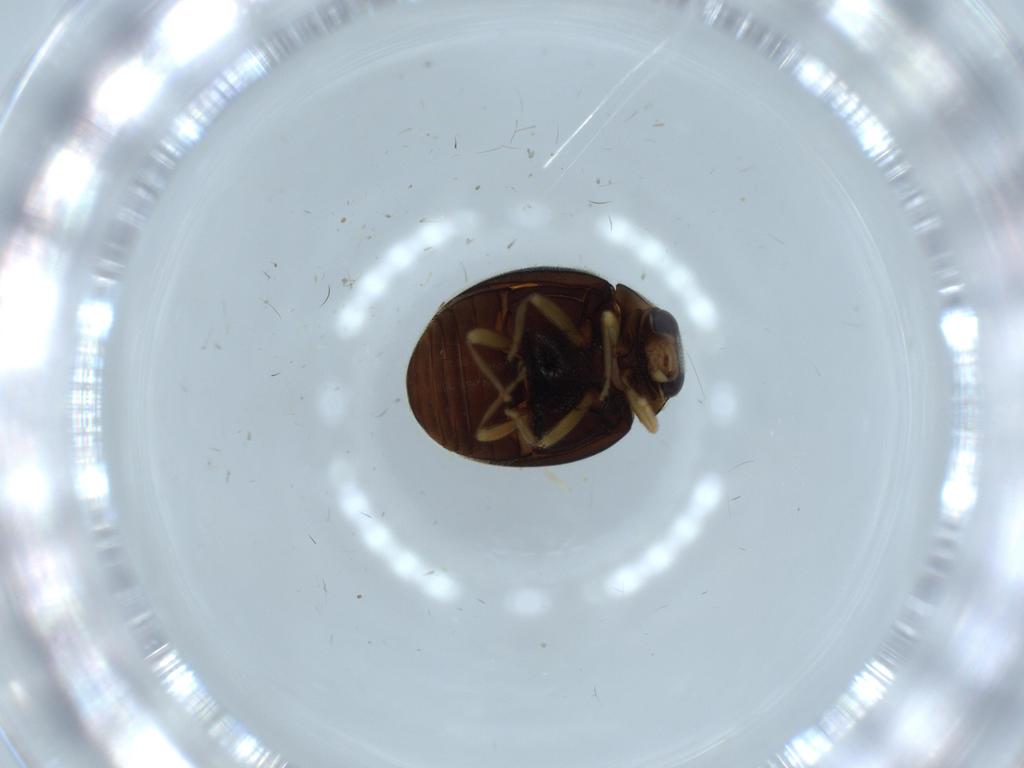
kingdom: Animalia
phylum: Arthropoda
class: Insecta
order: Coleoptera
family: Coccinellidae
